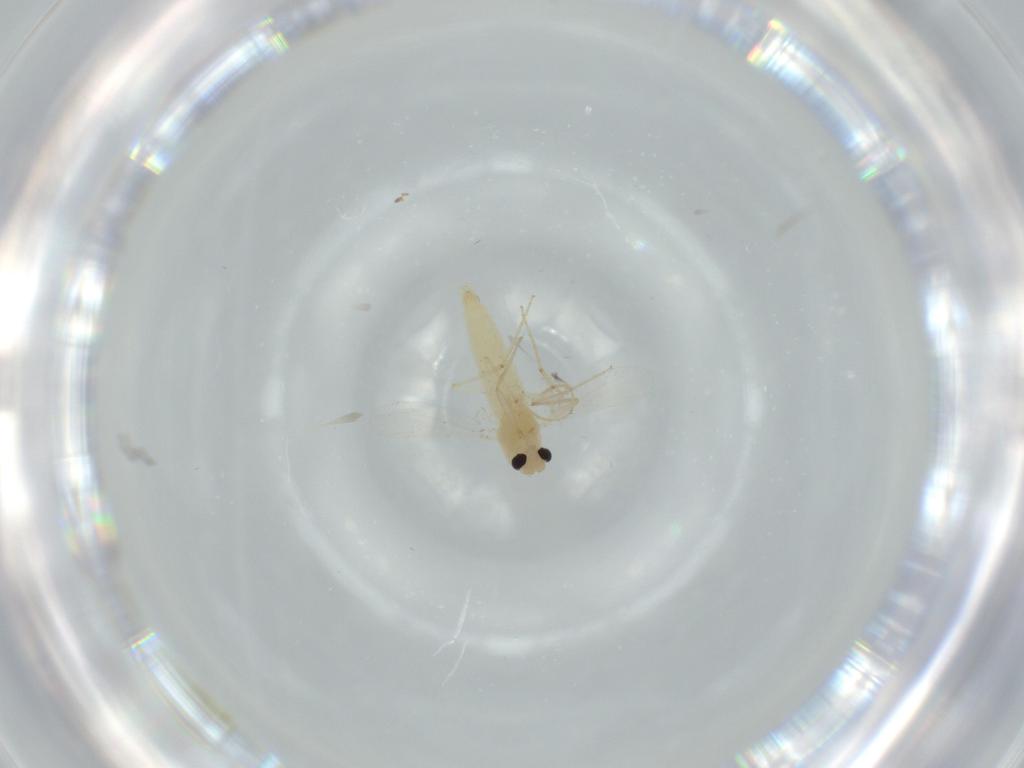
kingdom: Animalia
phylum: Arthropoda
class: Insecta
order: Diptera
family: Chironomidae
